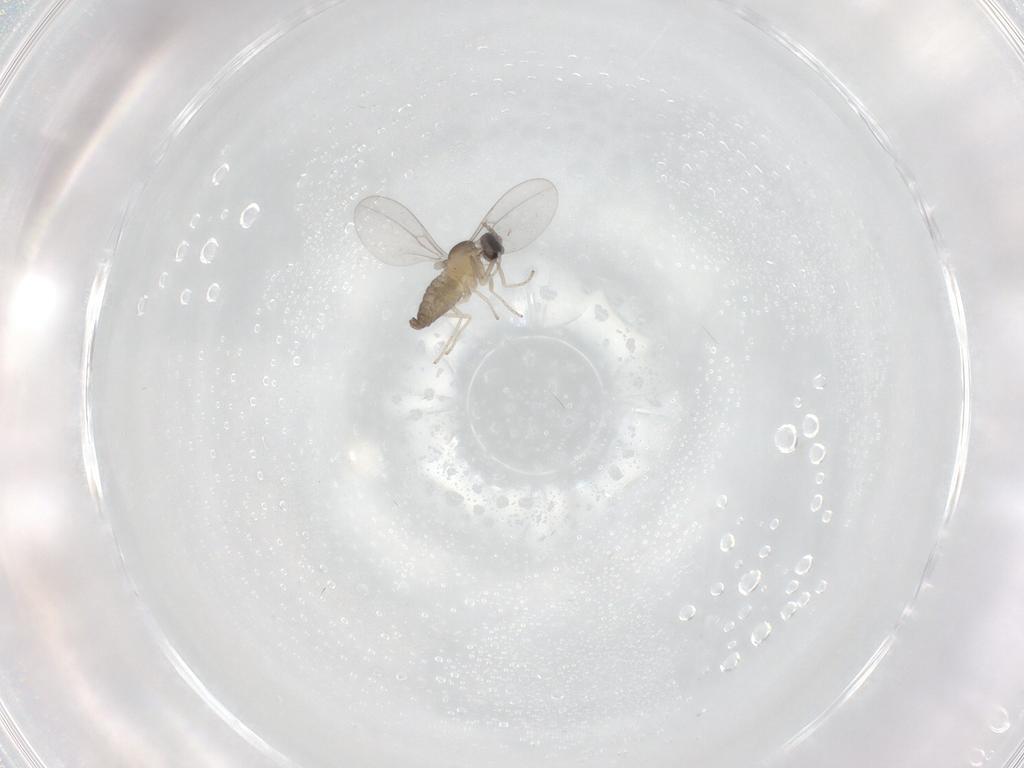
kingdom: Animalia
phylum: Arthropoda
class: Insecta
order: Diptera
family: Cecidomyiidae
